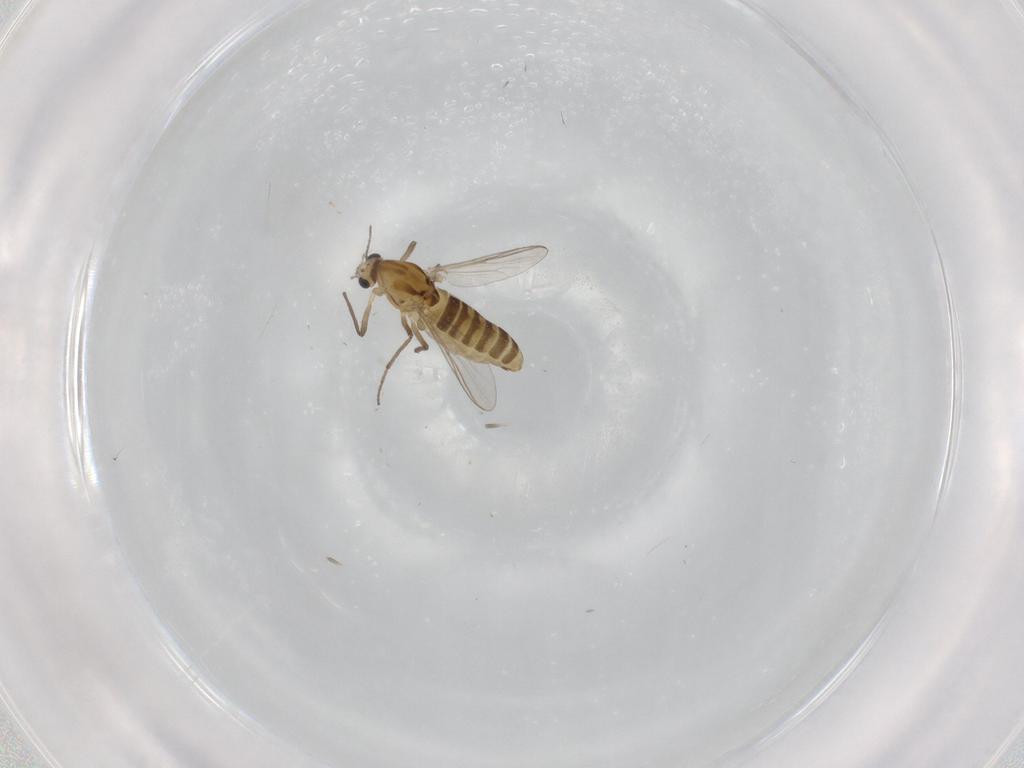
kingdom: Animalia
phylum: Arthropoda
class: Insecta
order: Diptera
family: Chironomidae
